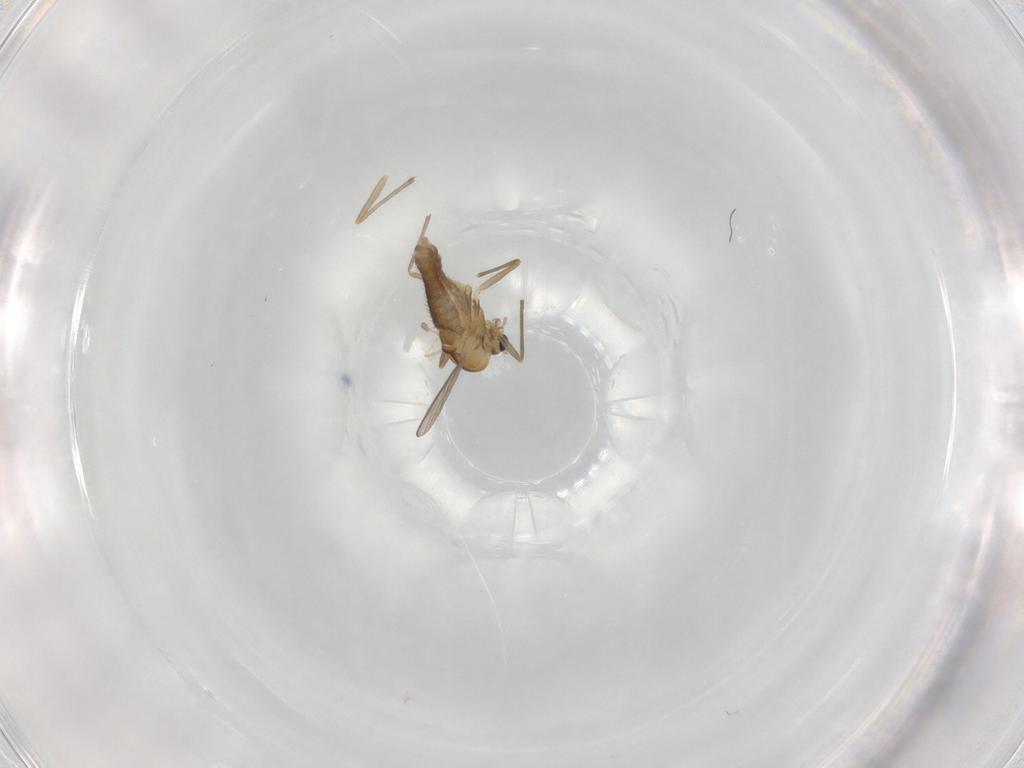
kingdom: Animalia
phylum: Arthropoda
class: Insecta
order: Diptera
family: Chironomidae
